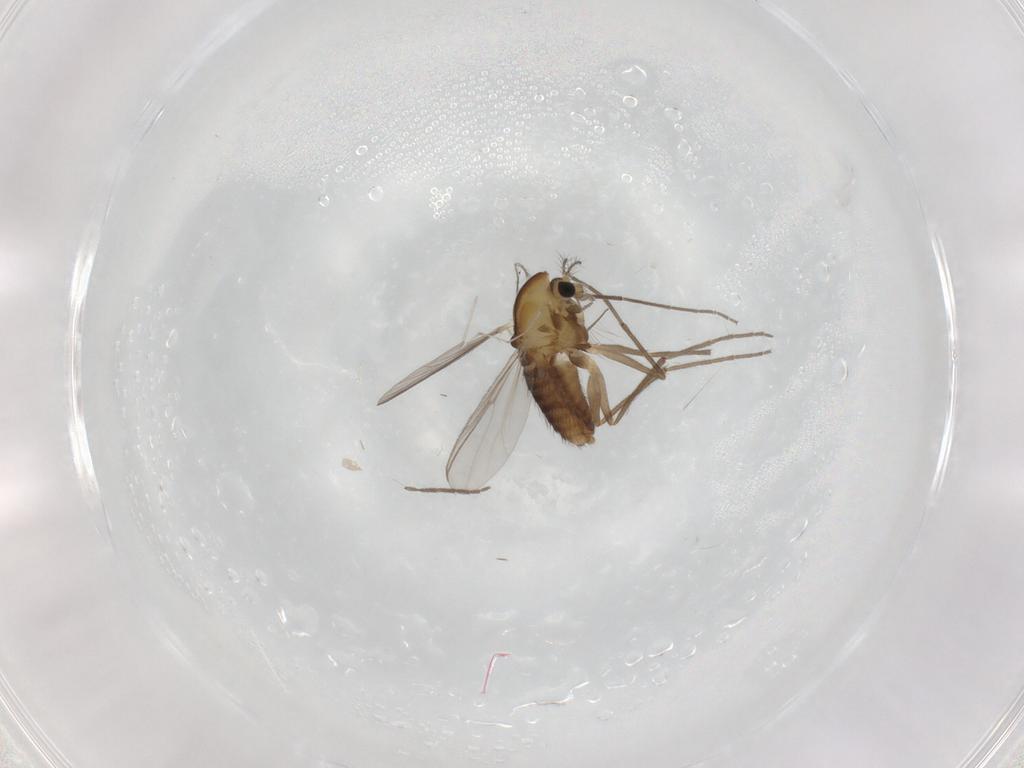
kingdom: Animalia
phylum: Arthropoda
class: Insecta
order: Diptera
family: Chironomidae
